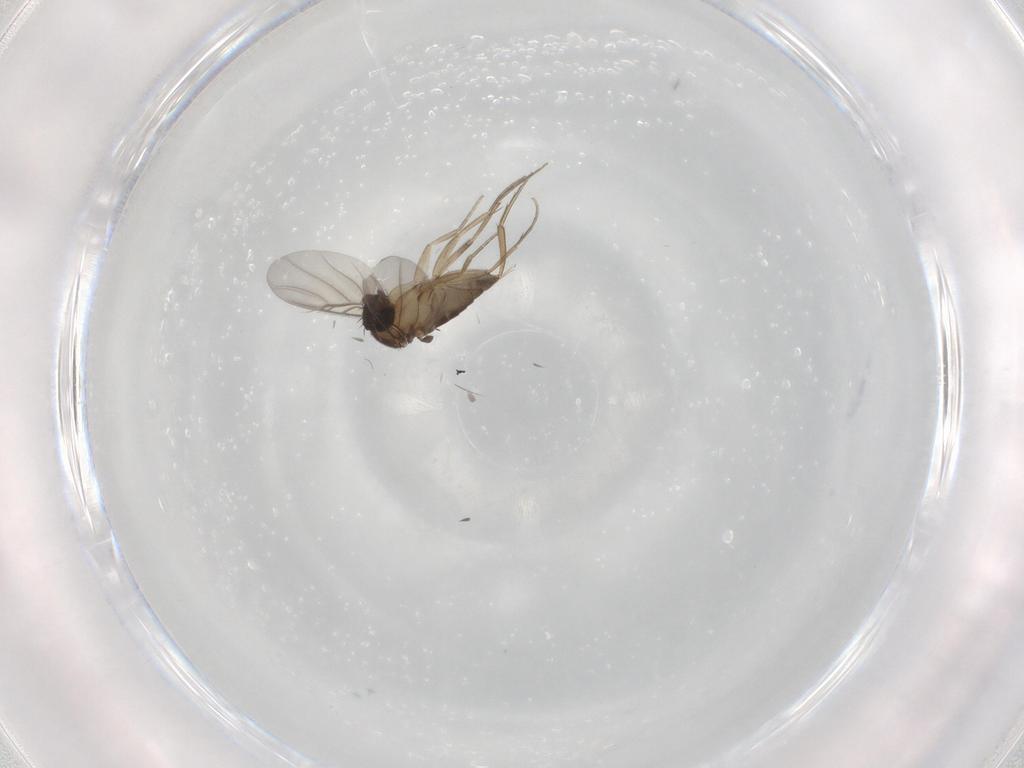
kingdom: Animalia
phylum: Arthropoda
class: Insecta
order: Diptera
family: Phoridae
